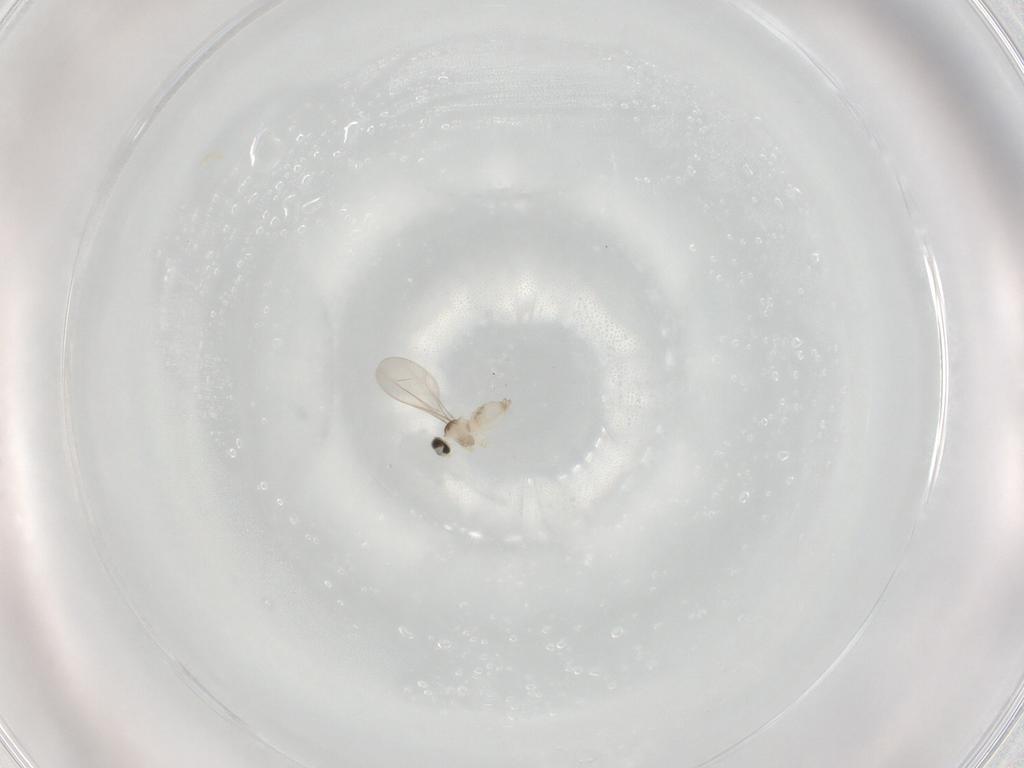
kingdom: Animalia
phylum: Arthropoda
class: Insecta
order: Diptera
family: Cecidomyiidae
